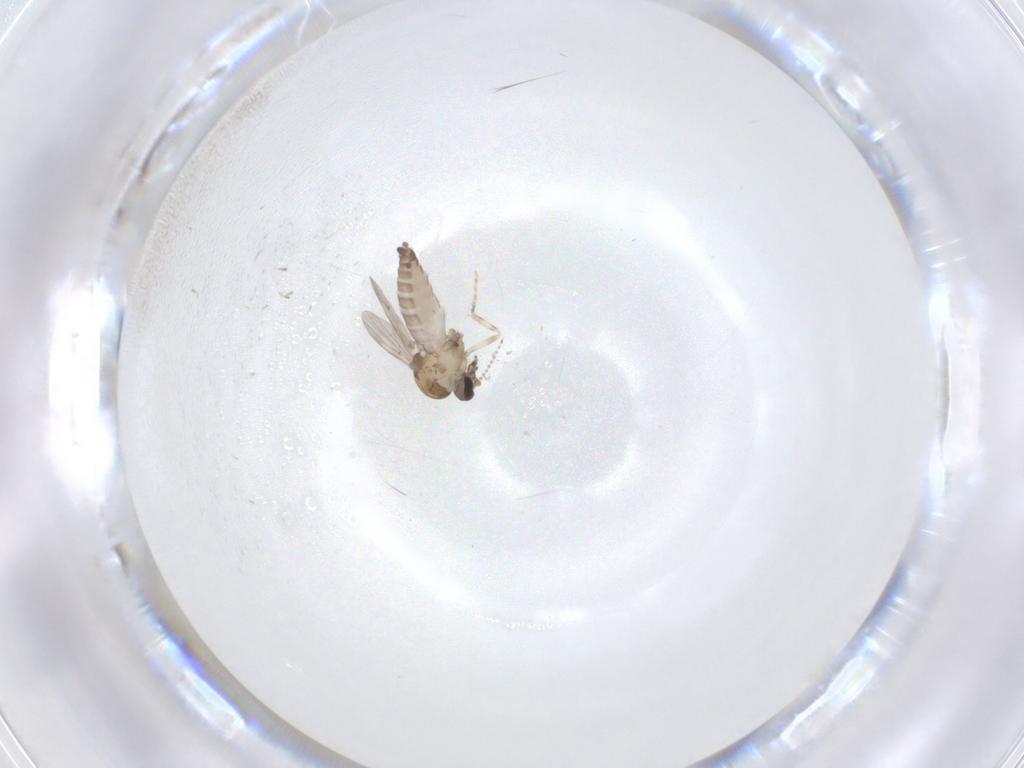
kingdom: Animalia
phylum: Arthropoda
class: Insecta
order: Diptera
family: Ceratopogonidae
